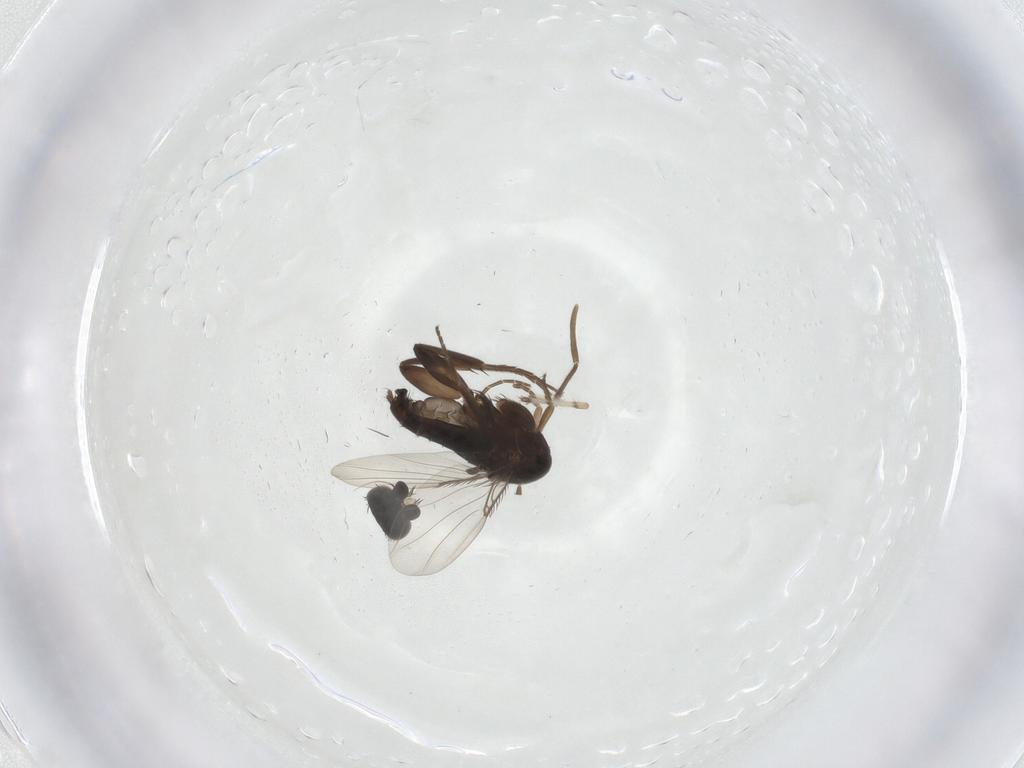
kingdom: Animalia
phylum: Arthropoda
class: Insecta
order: Diptera
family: Chironomidae
